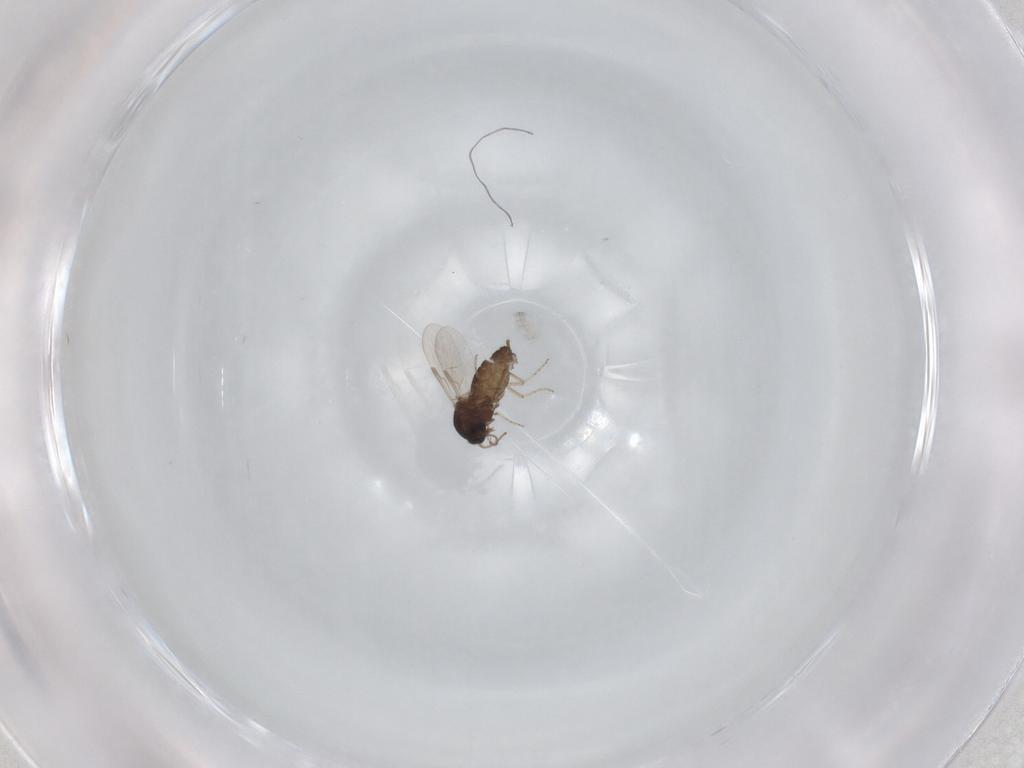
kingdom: Animalia
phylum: Arthropoda
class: Insecta
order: Diptera
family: Ceratopogonidae
